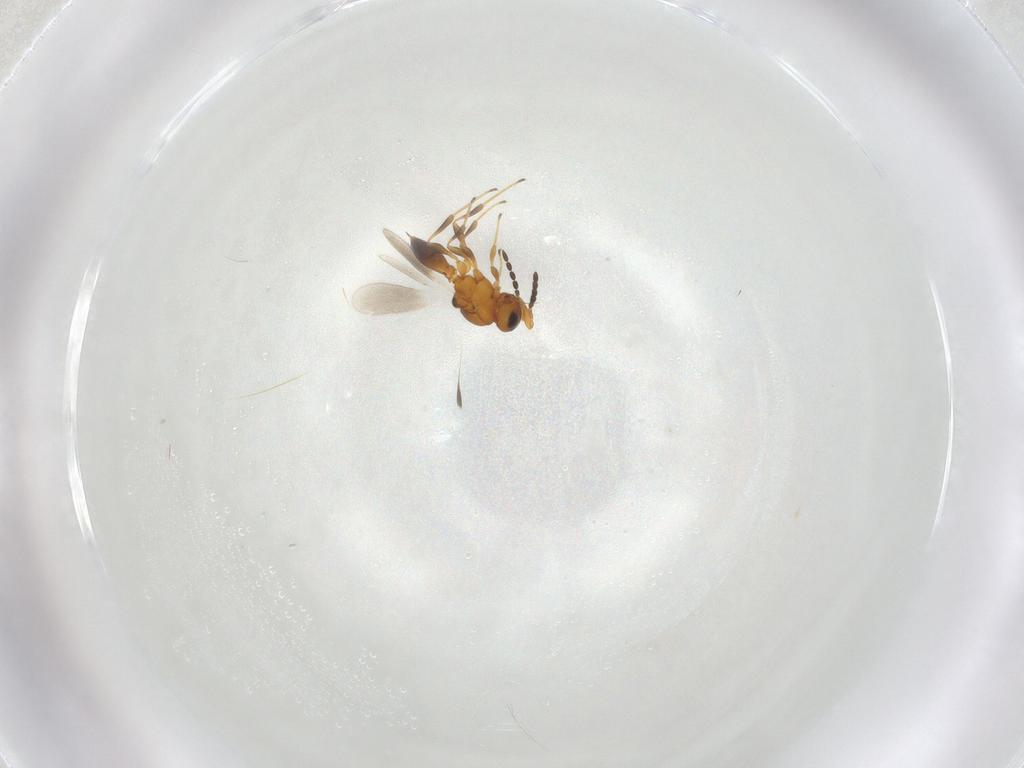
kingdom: Animalia
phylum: Arthropoda
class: Insecta
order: Hymenoptera
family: Platygastridae
